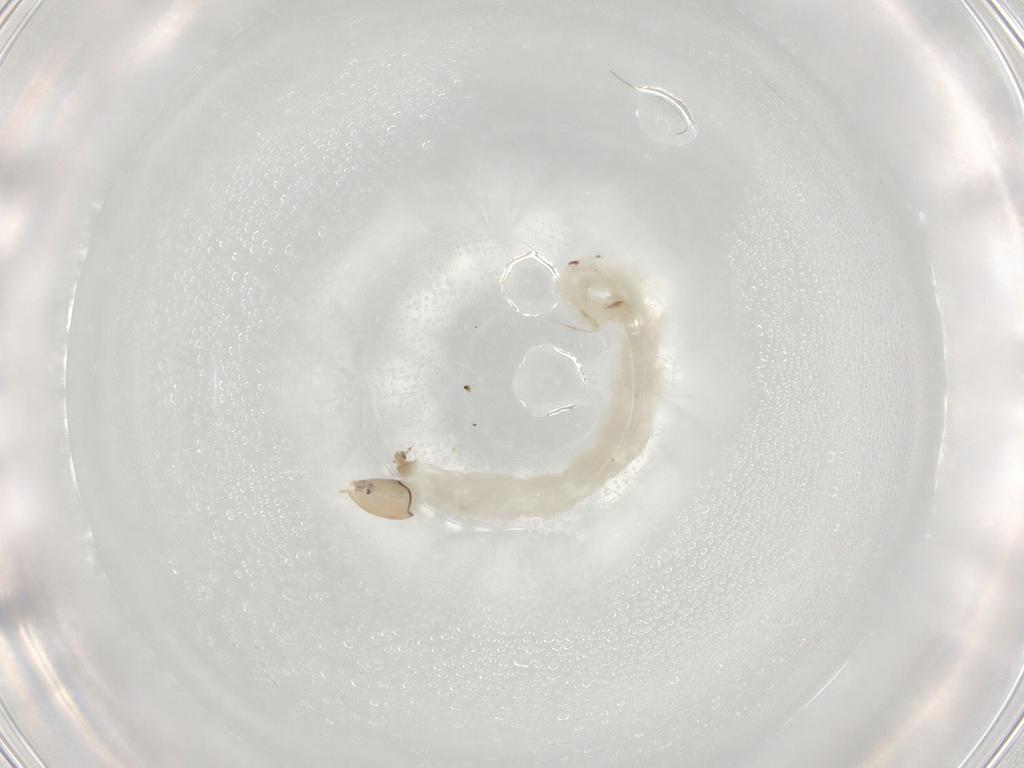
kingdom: Animalia
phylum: Arthropoda
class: Insecta
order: Diptera
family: Chironomidae
